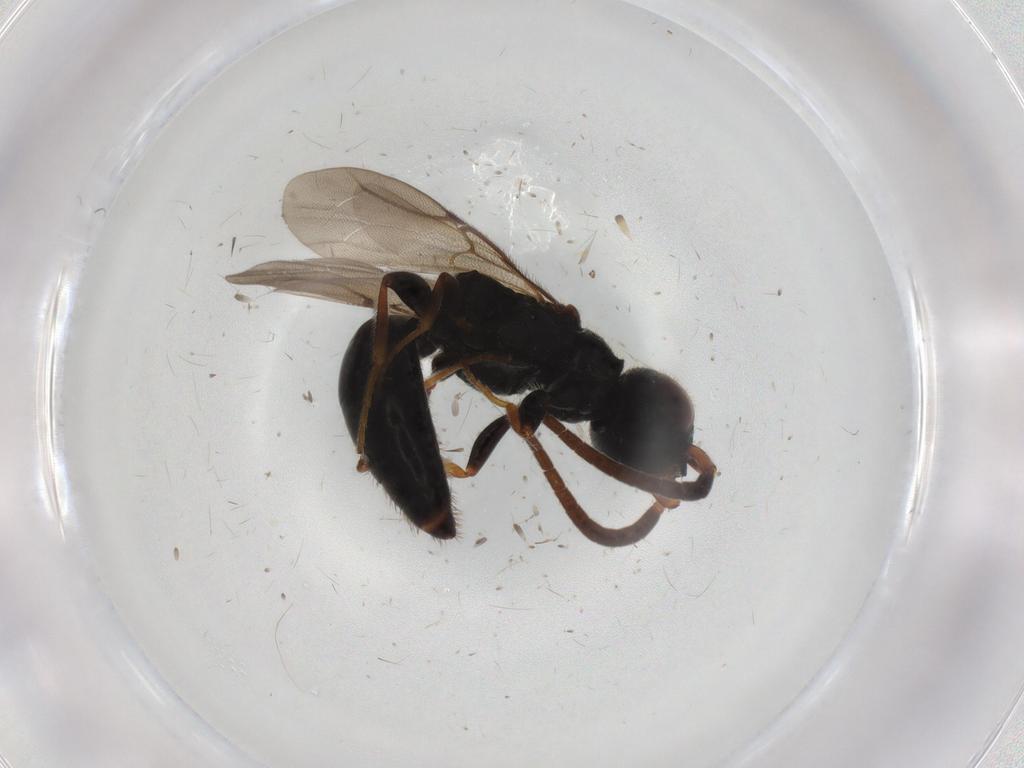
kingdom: Animalia
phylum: Arthropoda
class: Insecta
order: Hymenoptera
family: Bethylidae
